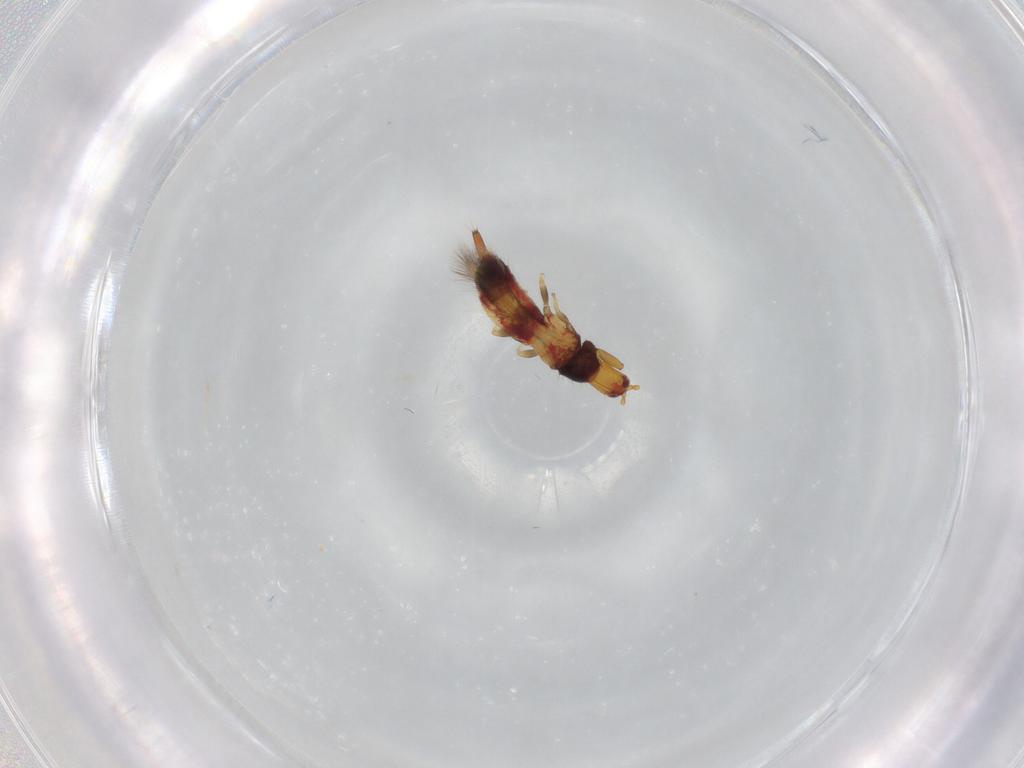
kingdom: Animalia
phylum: Arthropoda
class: Insecta
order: Thysanoptera
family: Phlaeothripidae
